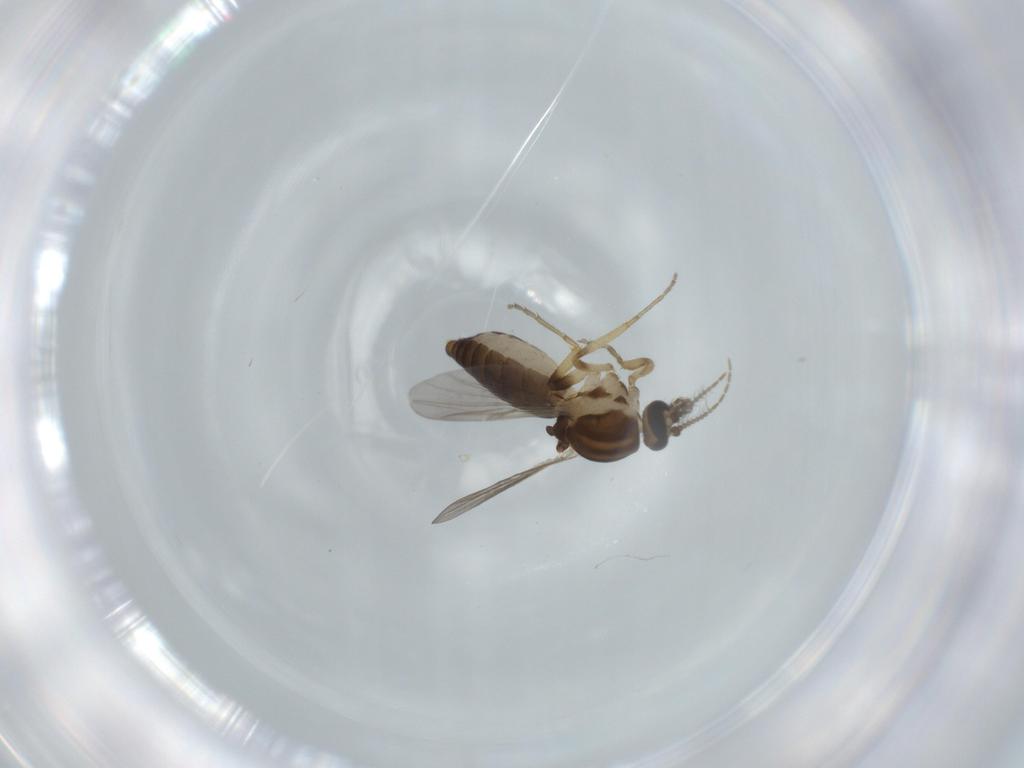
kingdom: Animalia
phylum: Arthropoda
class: Insecta
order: Diptera
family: Ceratopogonidae
